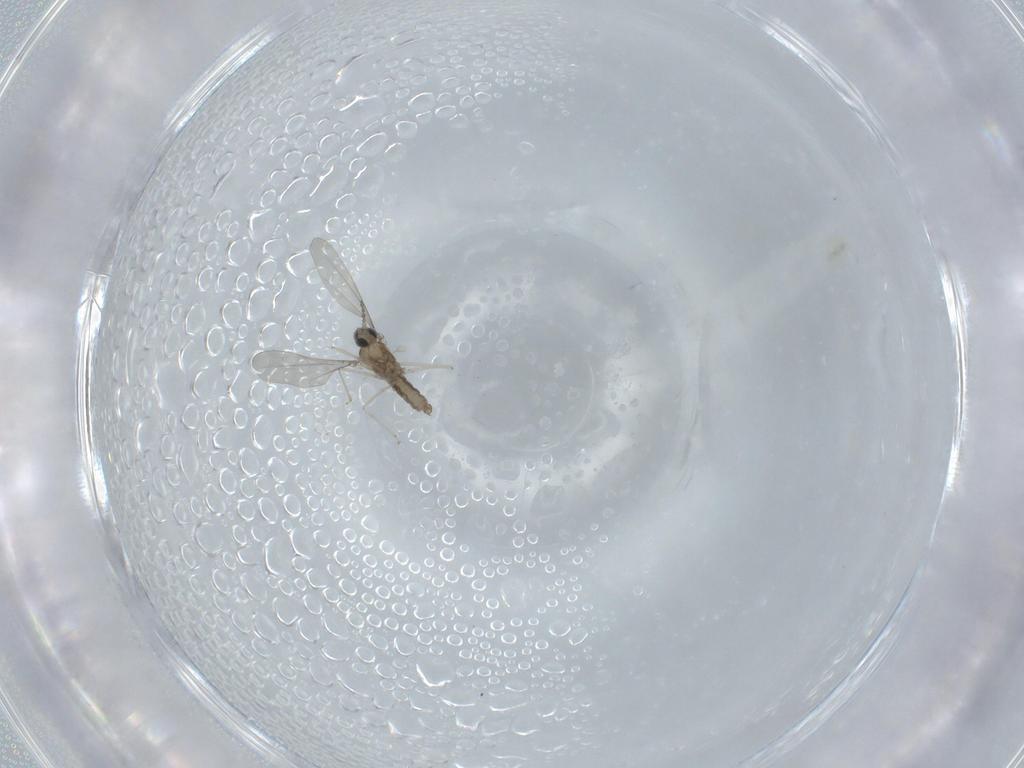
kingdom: Animalia
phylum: Arthropoda
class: Insecta
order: Diptera
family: Cecidomyiidae
